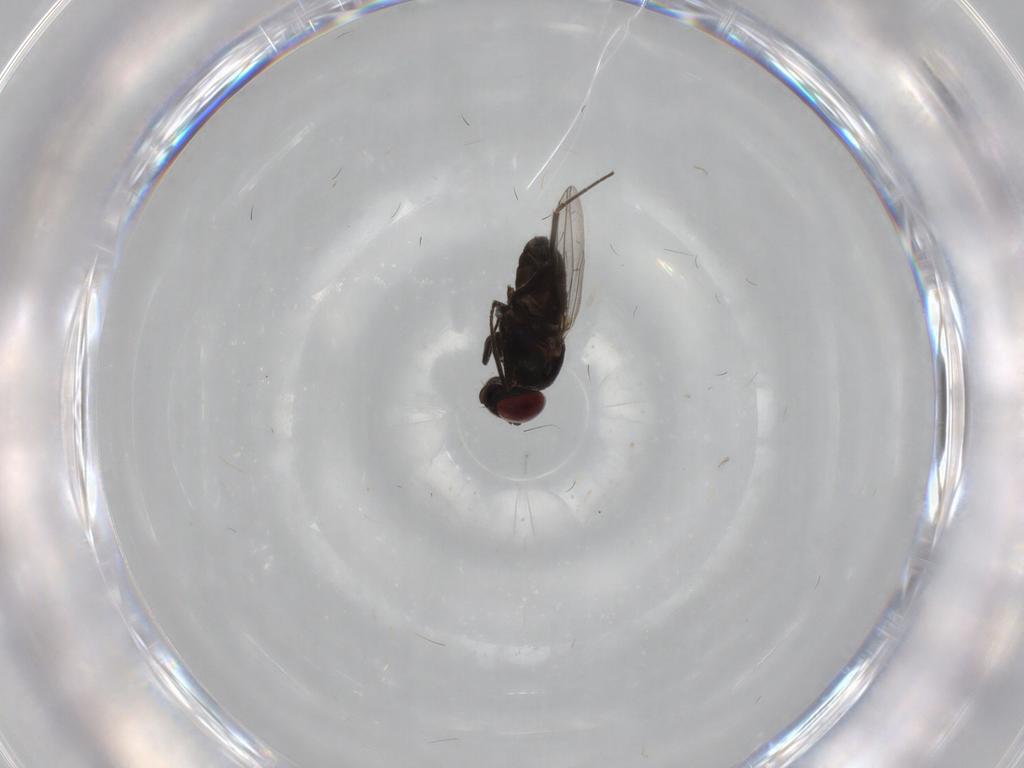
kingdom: Animalia
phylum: Arthropoda
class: Insecta
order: Diptera
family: Dolichopodidae
